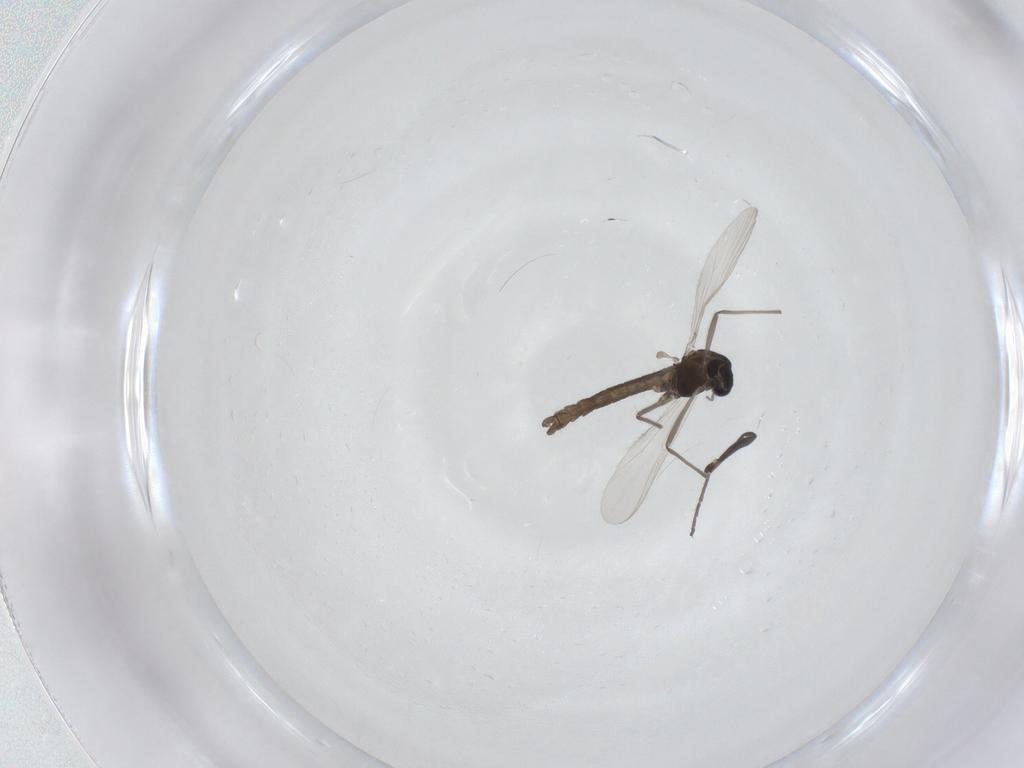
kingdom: Animalia
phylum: Arthropoda
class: Insecta
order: Diptera
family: Chironomidae
